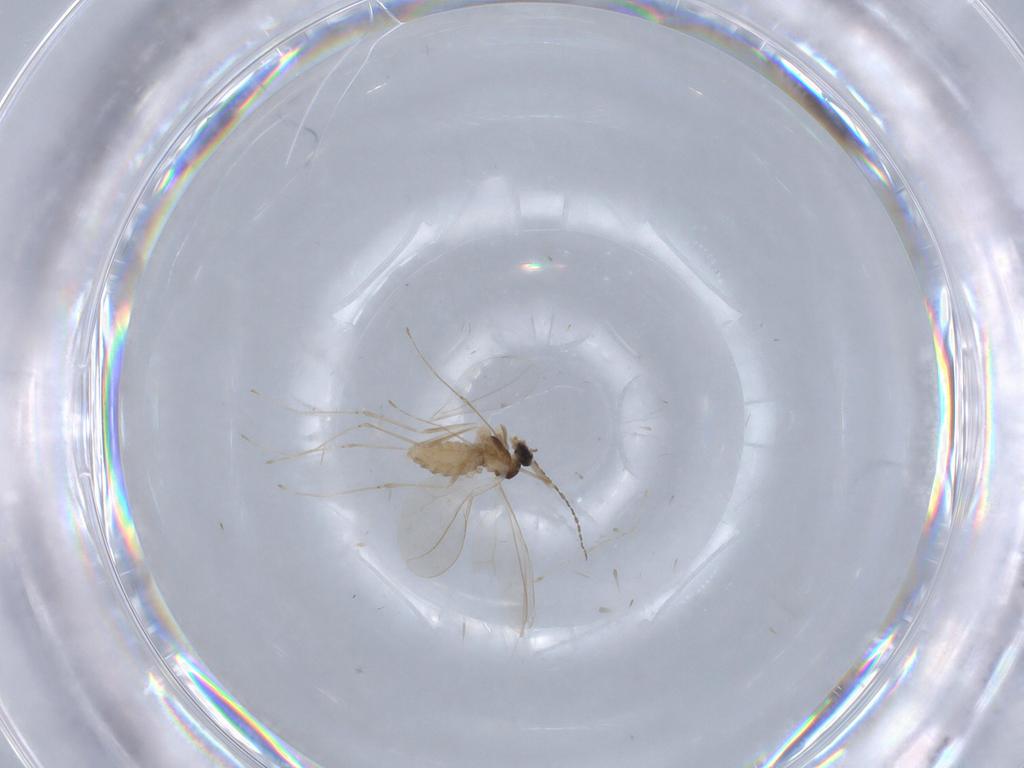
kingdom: Animalia
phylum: Arthropoda
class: Insecta
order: Diptera
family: Cecidomyiidae
